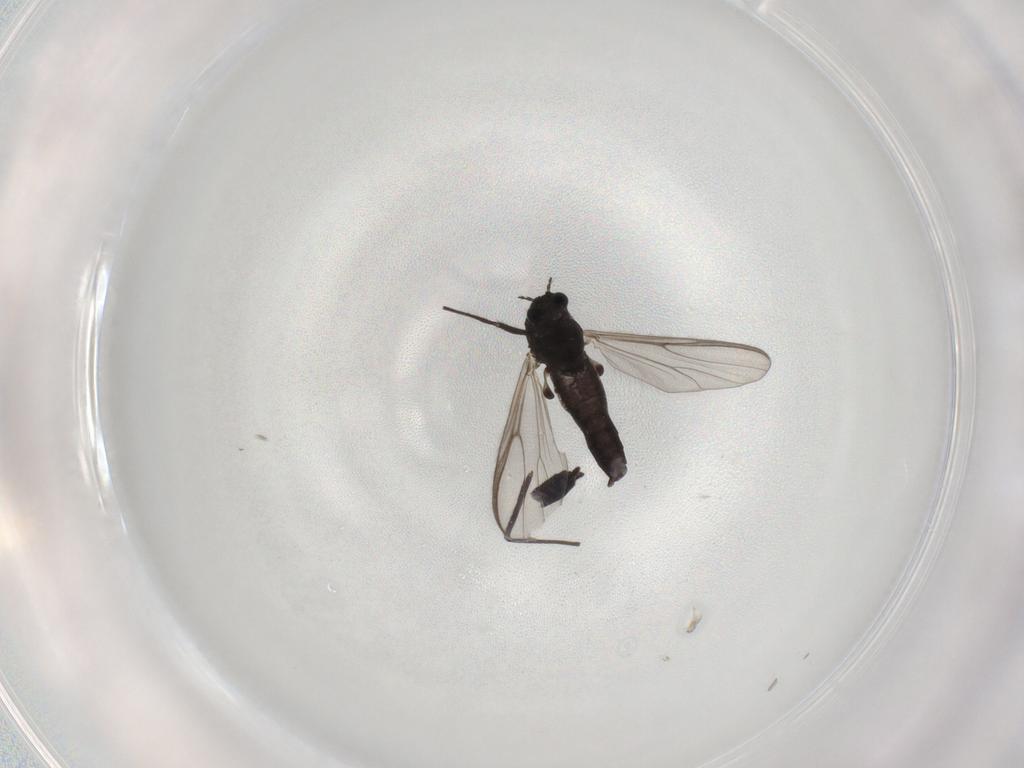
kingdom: Animalia
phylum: Arthropoda
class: Insecta
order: Diptera
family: Chironomidae
